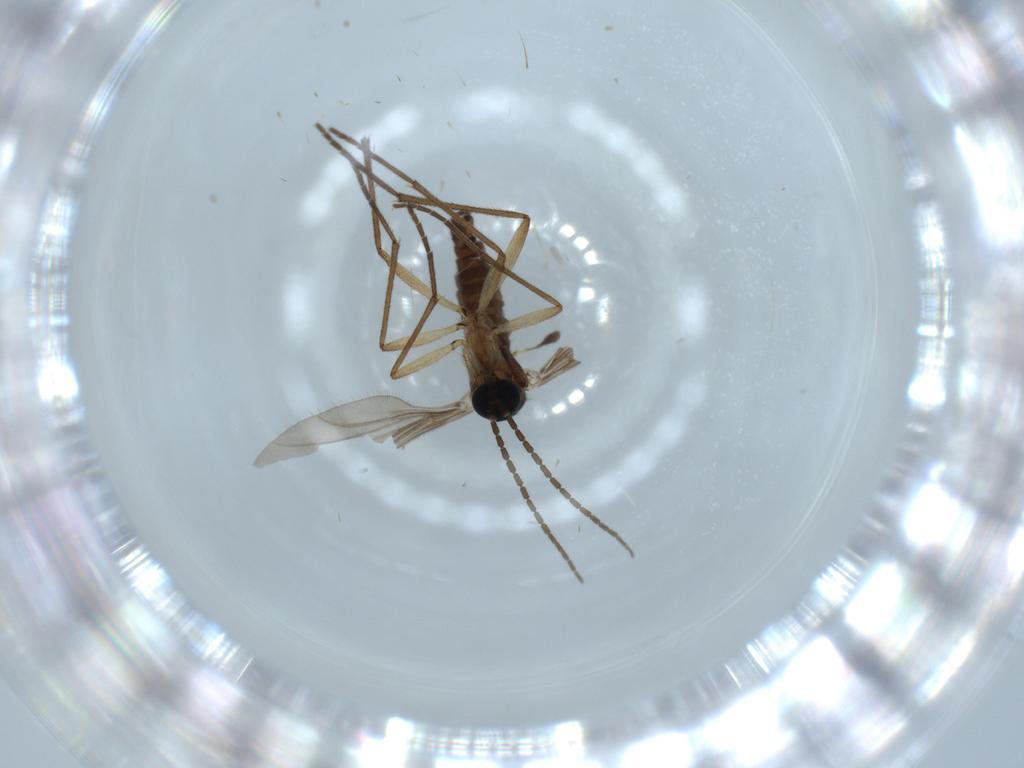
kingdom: Animalia
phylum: Arthropoda
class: Insecta
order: Diptera
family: Sciaridae
